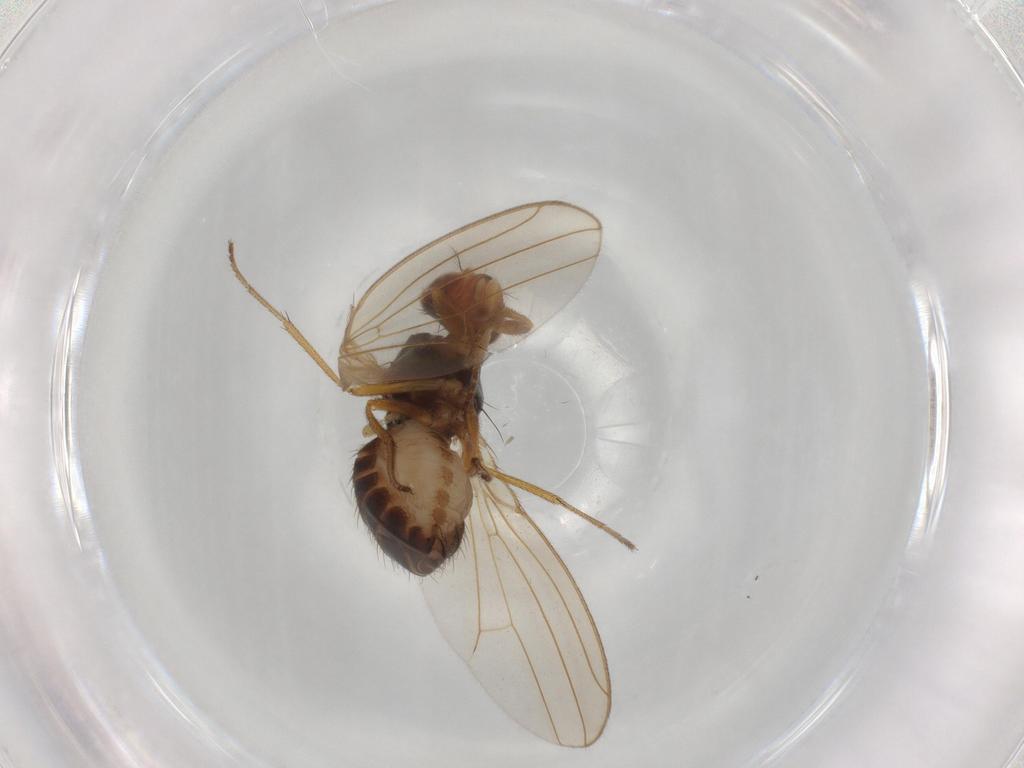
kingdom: Animalia
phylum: Arthropoda
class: Insecta
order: Diptera
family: Drosophilidae
